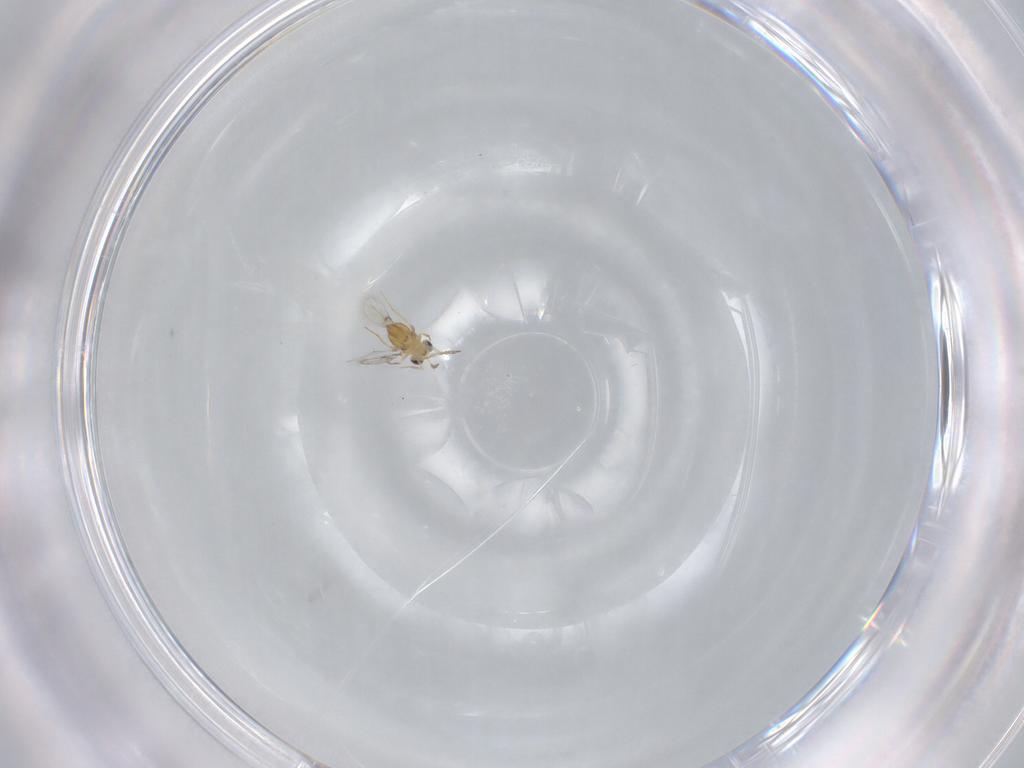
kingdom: Animalia
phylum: Arthropoda
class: Insecta
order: Hymenoptera
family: Trichogrammatidae
